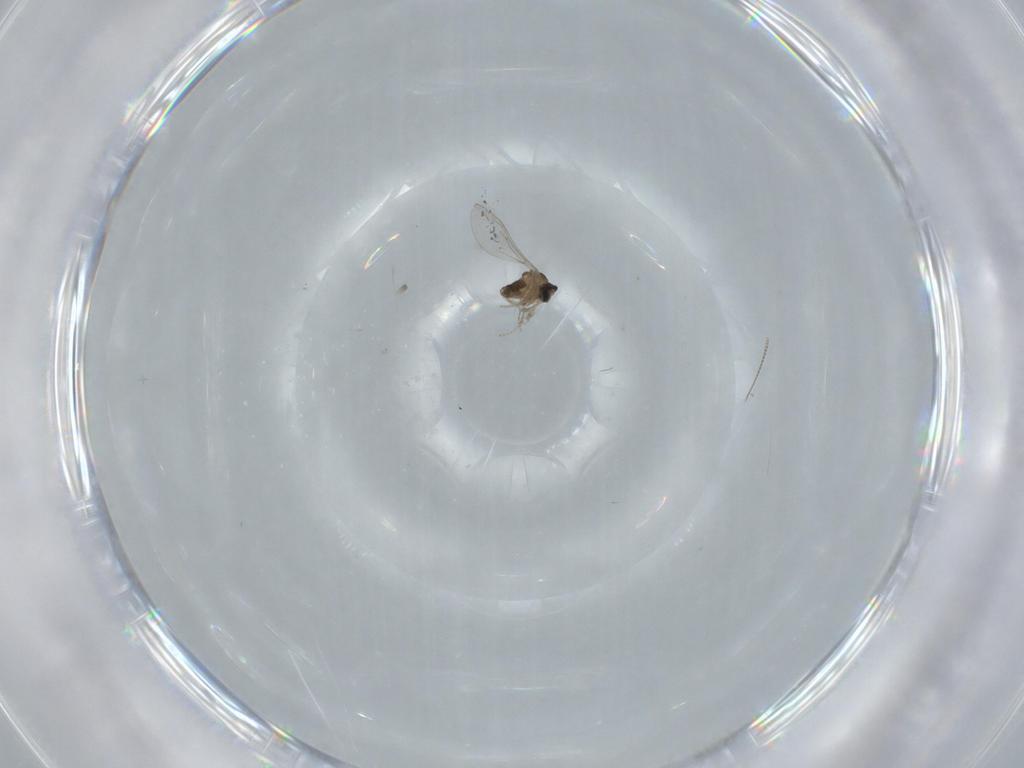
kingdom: Animalia
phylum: Arthropoda
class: Insecta
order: Diptera
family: Cecidomyiidae
